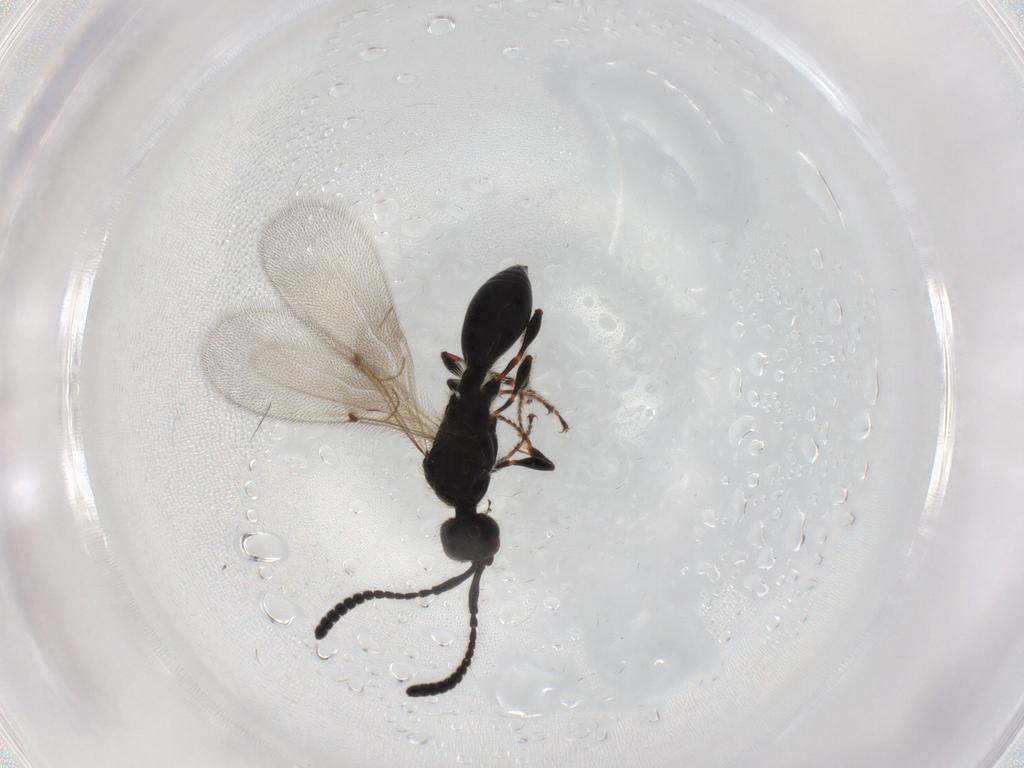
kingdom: Animalia
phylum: Arthropoda
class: Insecta
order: Hymenoptera
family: Diapriidae
